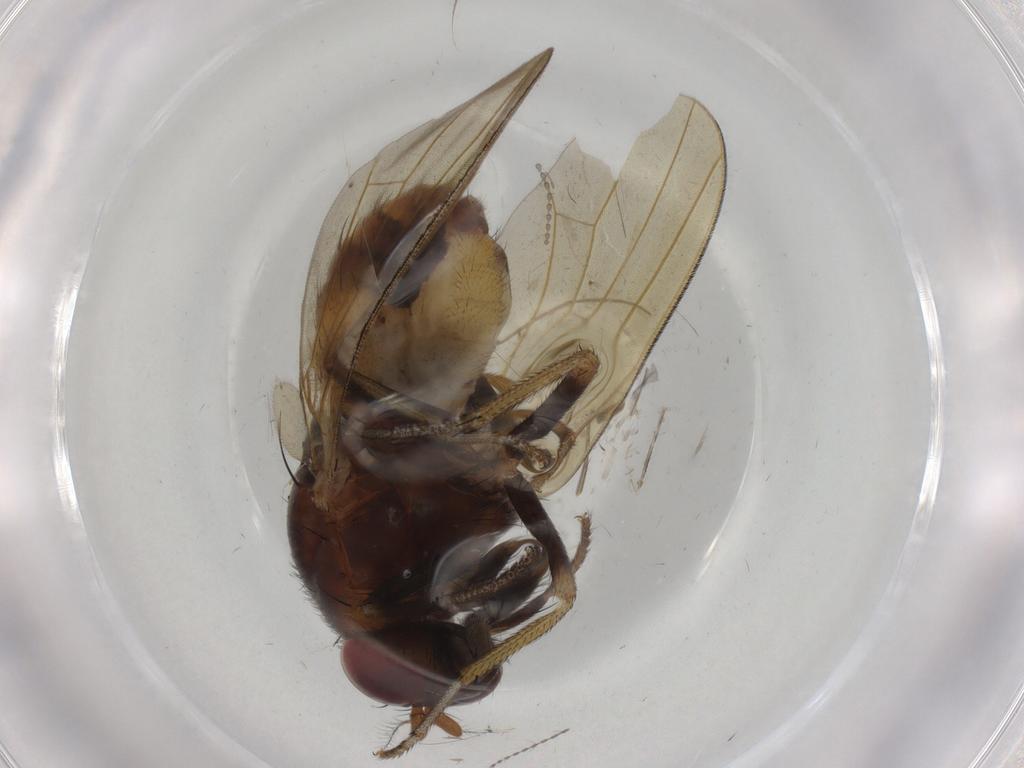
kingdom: Animalia
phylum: Arthropoda
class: Insecta
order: Diptera
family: Cecidomyiidae
